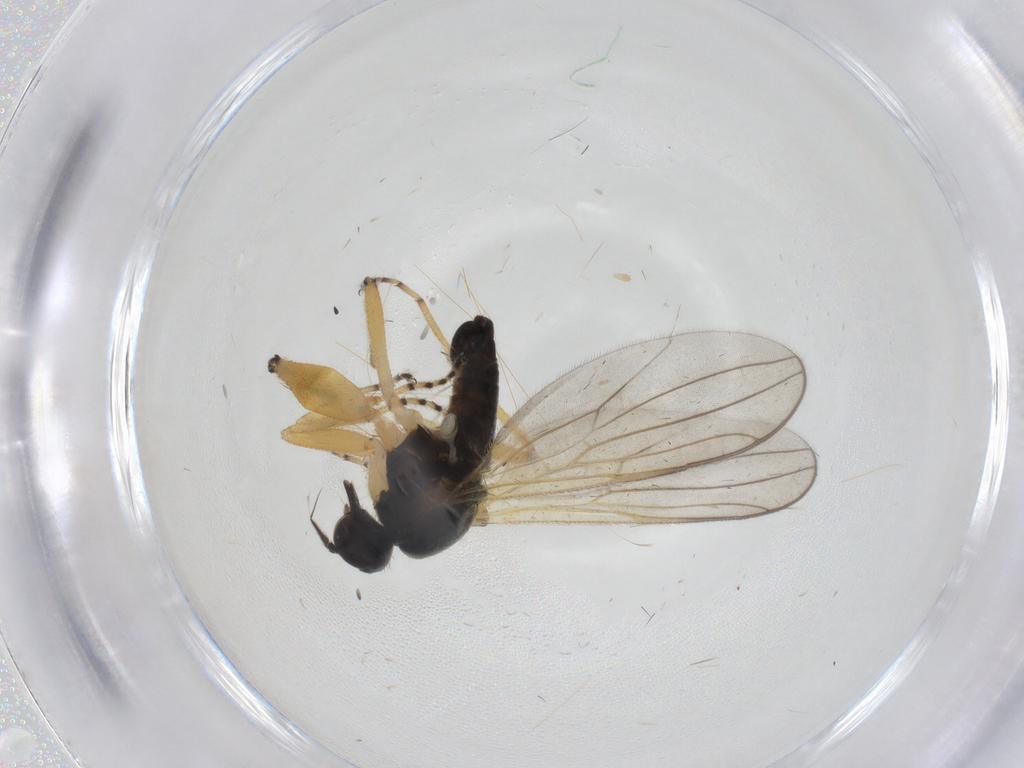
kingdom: Animalia
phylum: Arthropoda
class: Insecta
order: Diptera
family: Hybotidae
